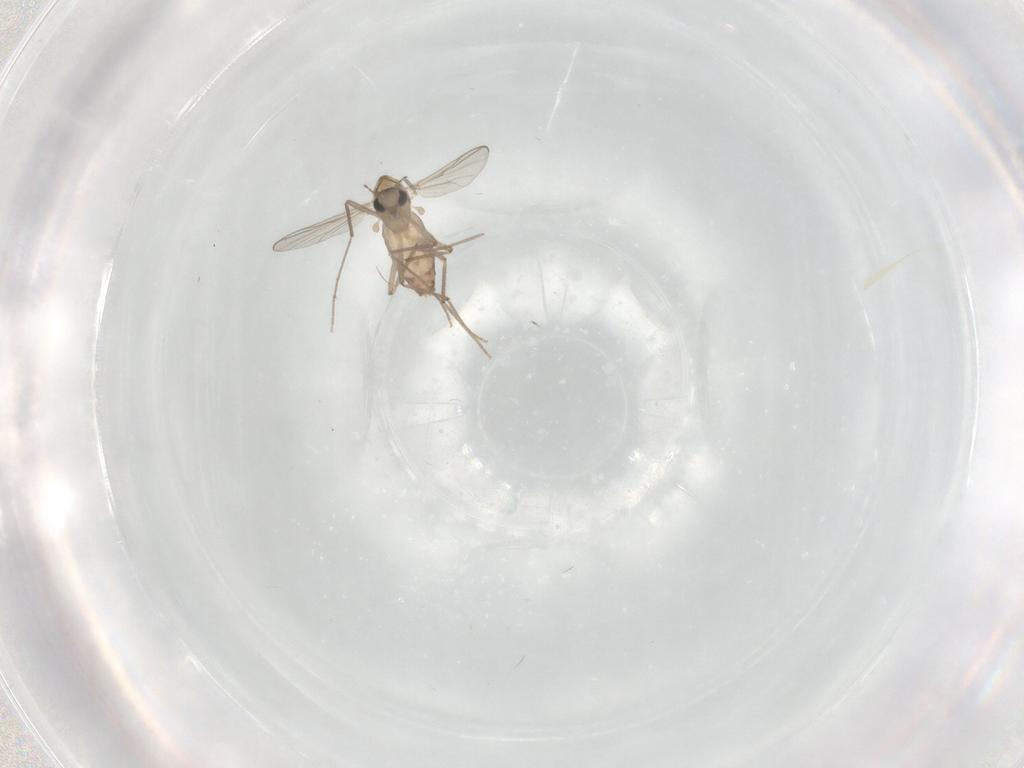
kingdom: Animalia
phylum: Arthropoda
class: Insecta
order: Diptera
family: Chironomidae
